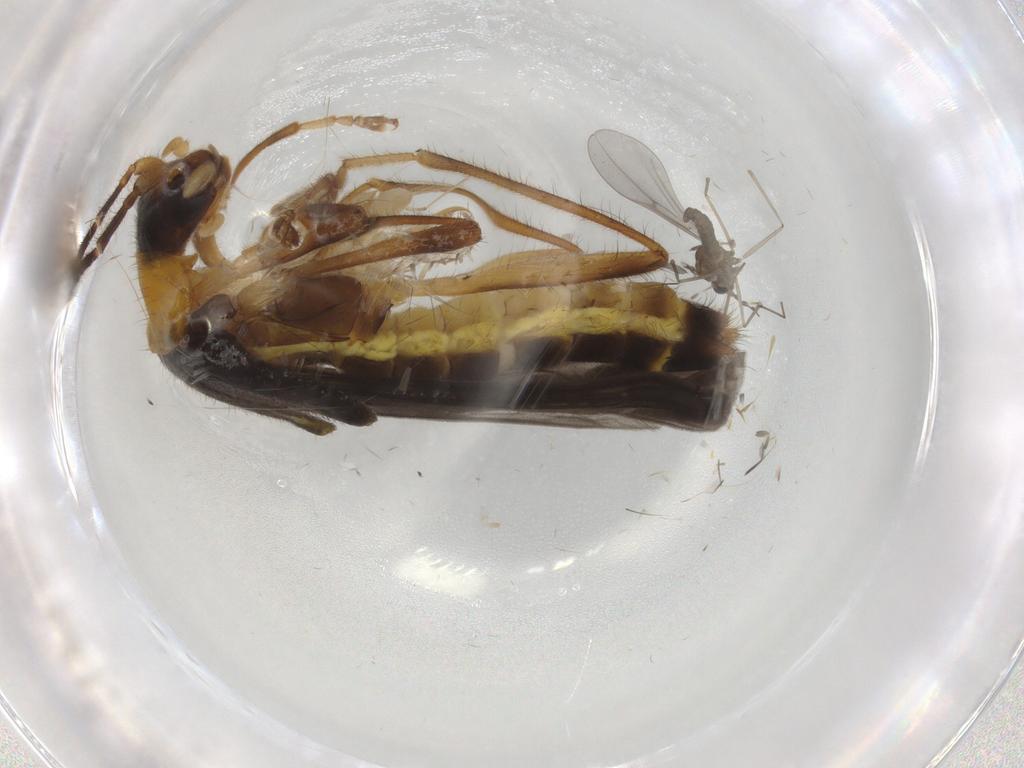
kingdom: Animalia
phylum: Arthropoda
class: Insecta
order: Diptera
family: Chironomidae
